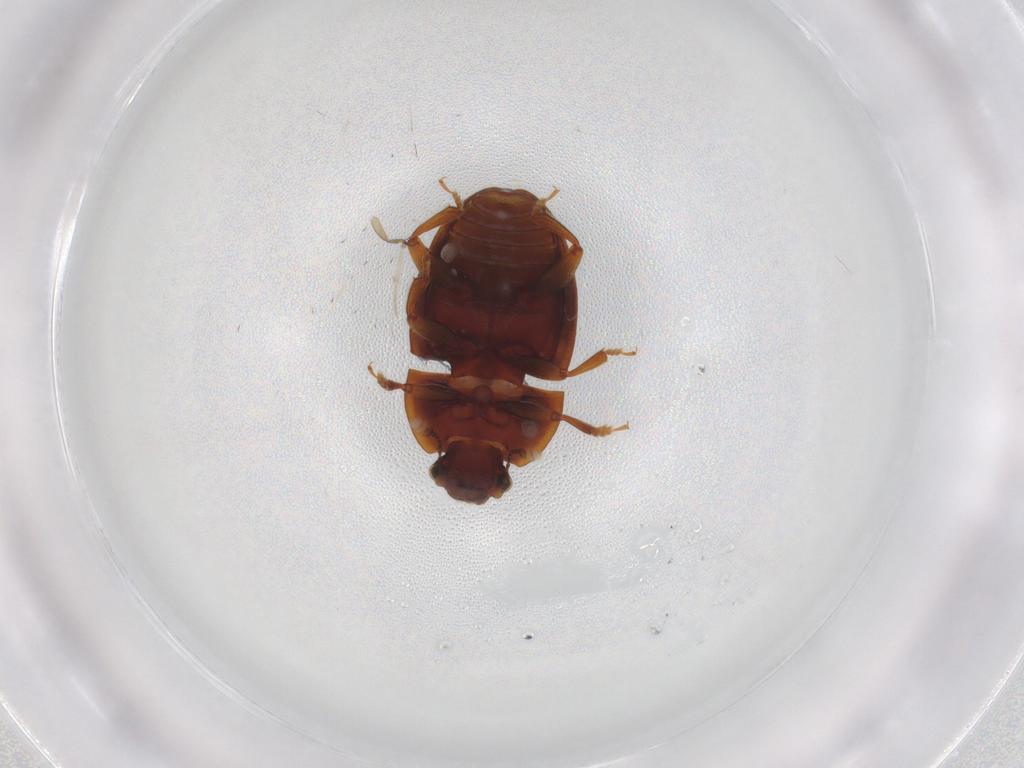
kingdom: Animalia
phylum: Arthropoda
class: Insecta
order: Coleoptera
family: Nitidulidae
